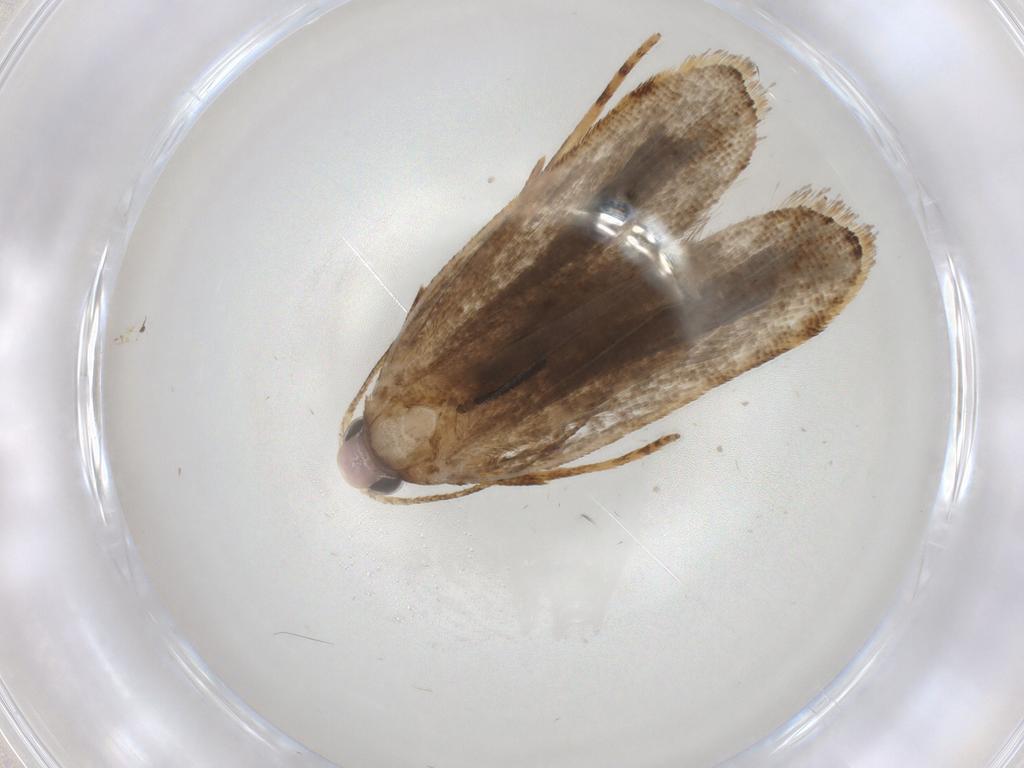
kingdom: Animalia
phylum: Arthropoda
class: Insecta
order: Lepidoptera
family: Gelechiidae
